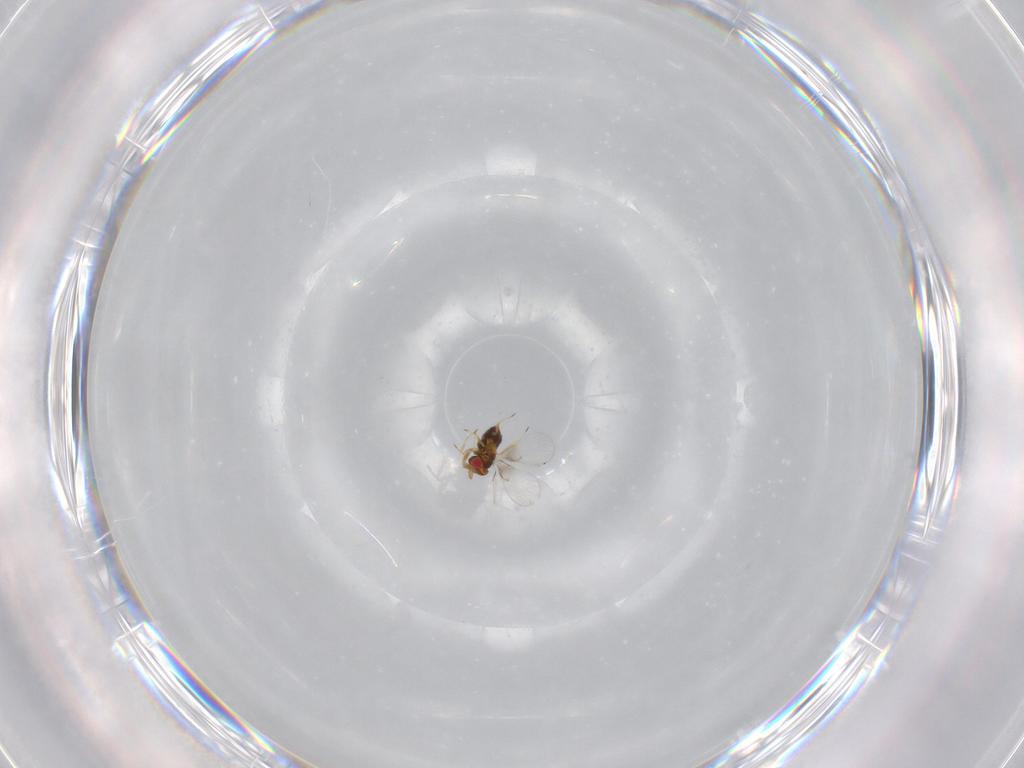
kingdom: Animalia
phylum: Arthropoda
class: Insecta
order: Hymenoptera
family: Trichogrammatidae
